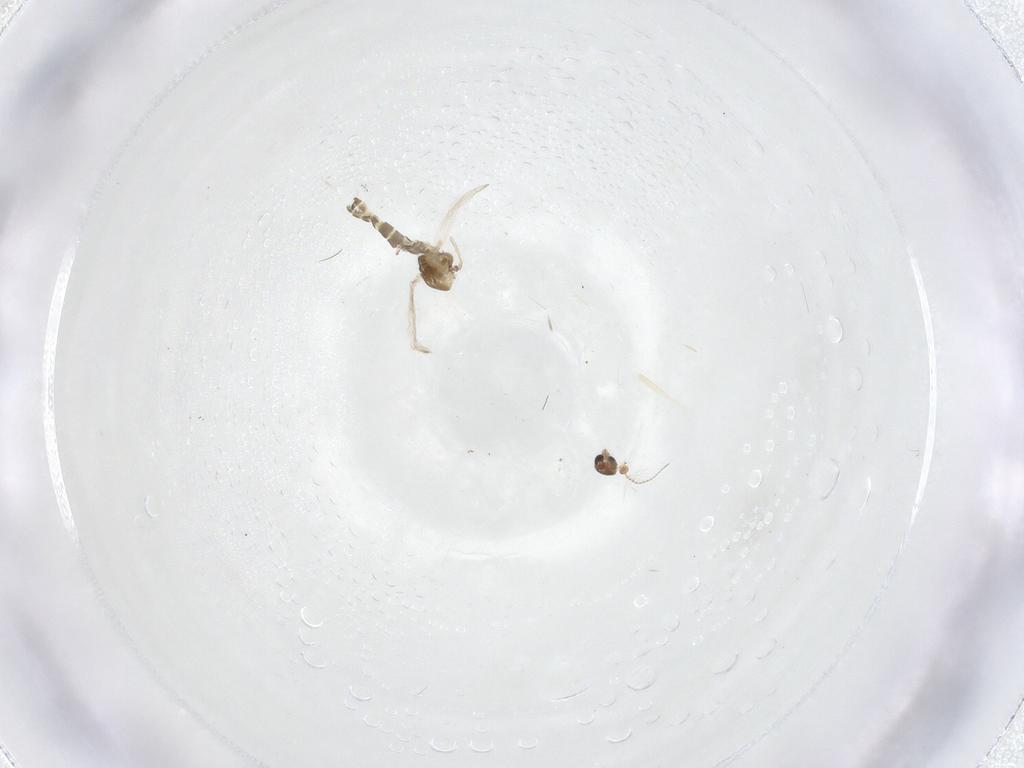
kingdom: Animalia
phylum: Arthropoda
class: Insecta
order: Diptera
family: Chironomidae
